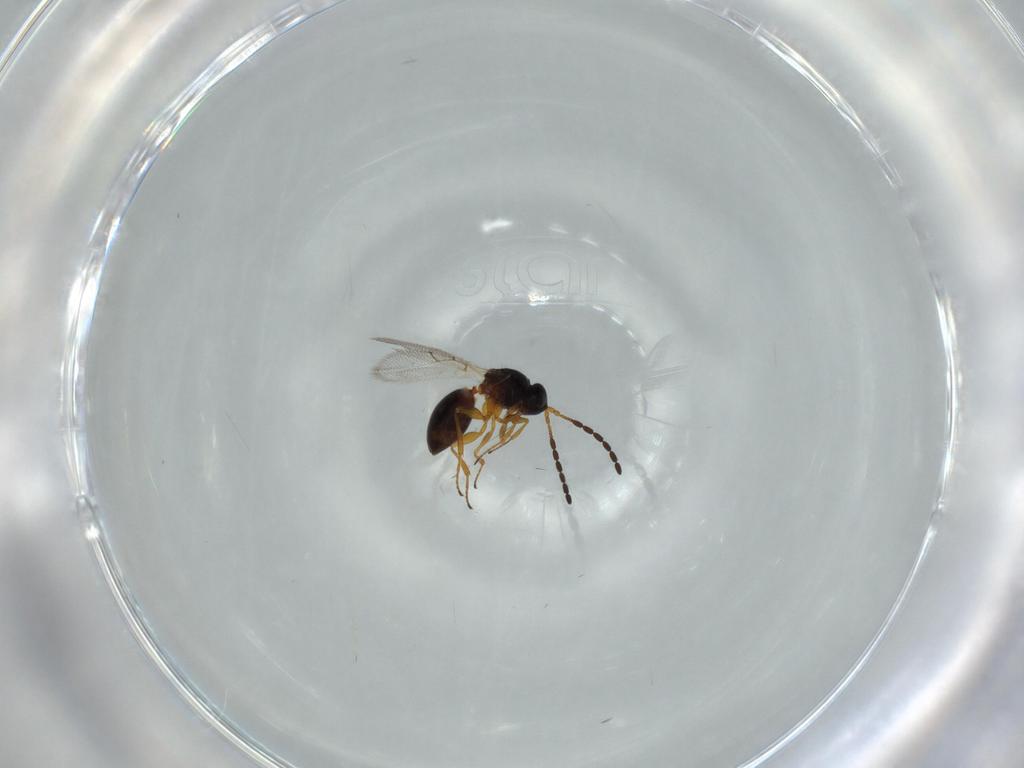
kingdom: Animalia
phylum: Arthropoda
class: Insecta
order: Hymenoptera
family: Figitidae
